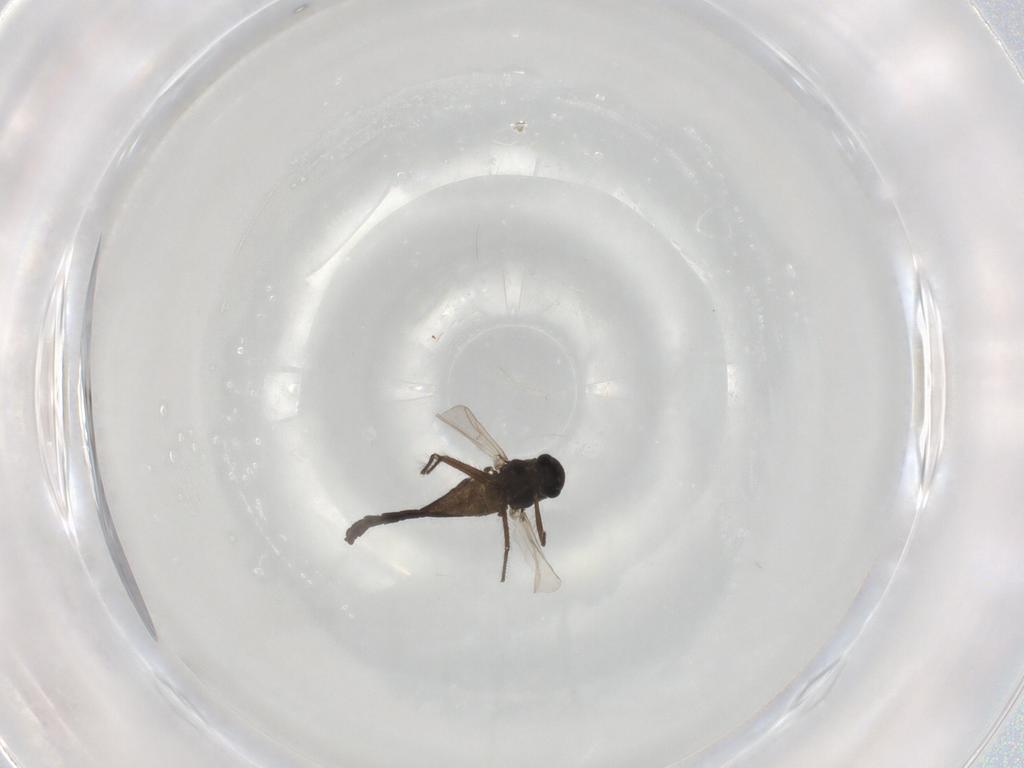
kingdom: Animalia
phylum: Arthropoda
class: Insecta
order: Diptera
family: Chironomidae
